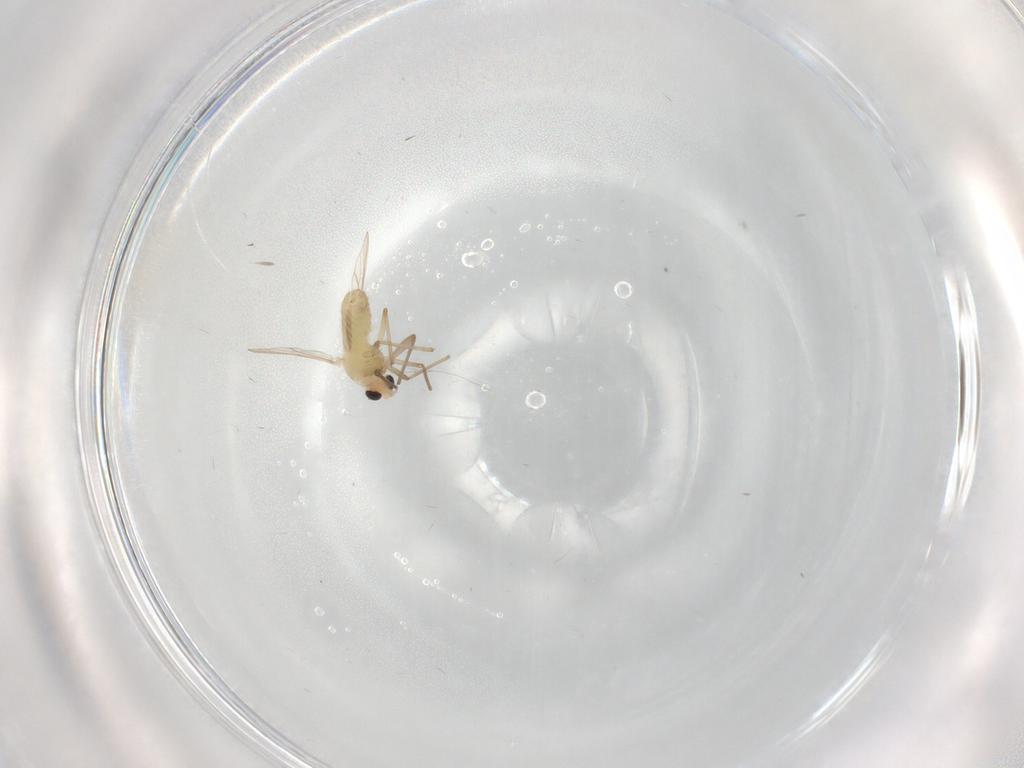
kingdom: Animalia
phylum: Arthropoda
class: Insecta
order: Diptera
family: Chironomidae
